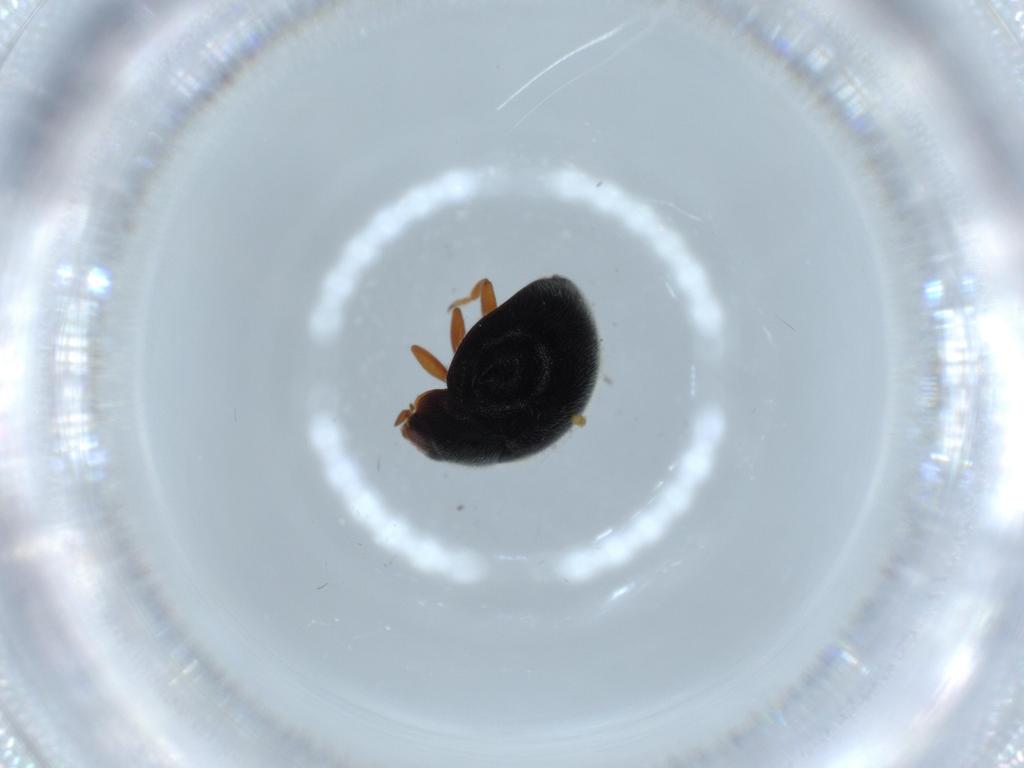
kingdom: Animalia
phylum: Arthropoda
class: Insecta
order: Coleoptera
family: Coccinellidae
